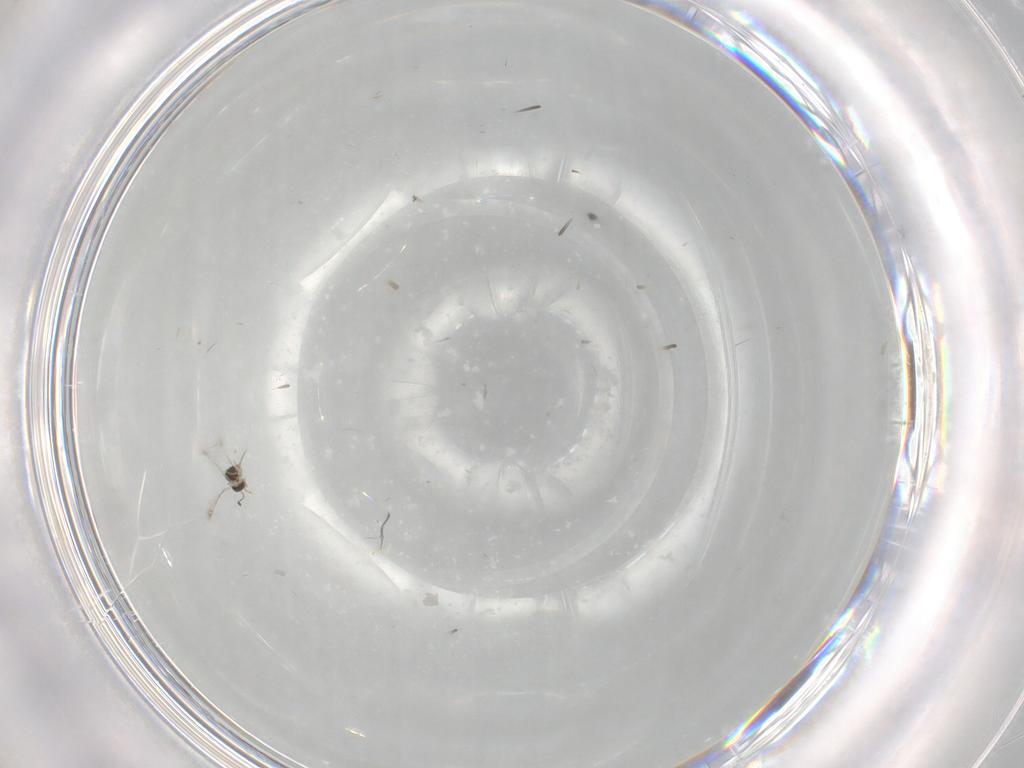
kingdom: Animalia
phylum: Arthropoda
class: Insecta
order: Hymenoptera
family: Mymaridae
